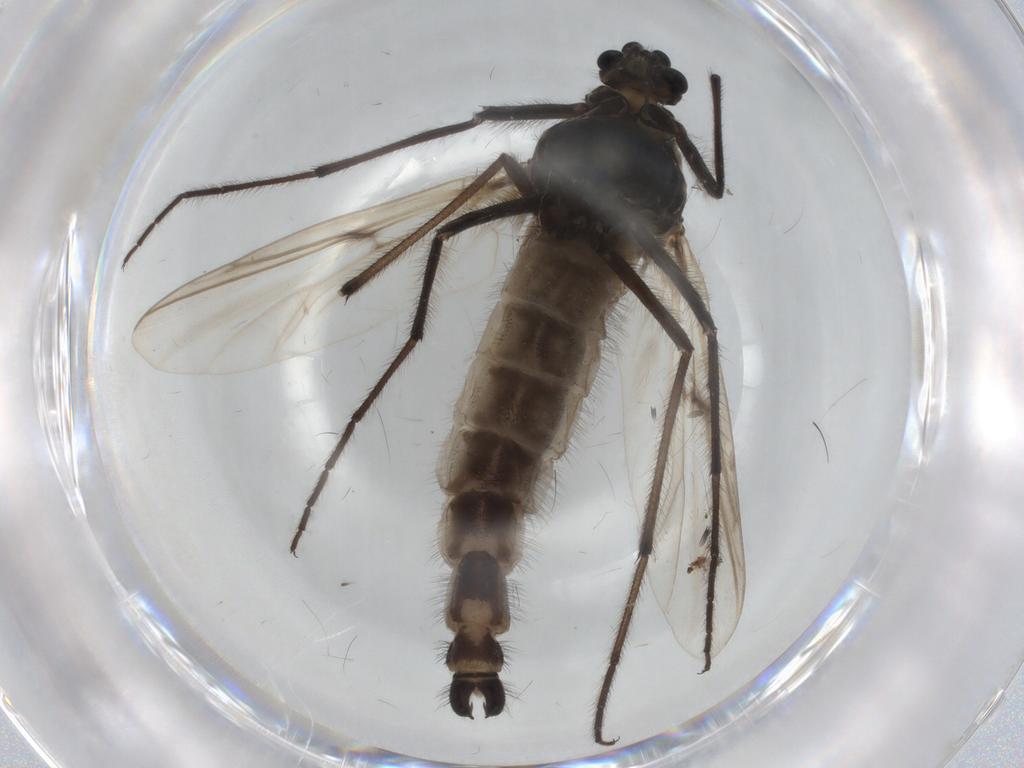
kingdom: Animalia
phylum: Arthropoda
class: Insecta
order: Diptera
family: Chironomidae
